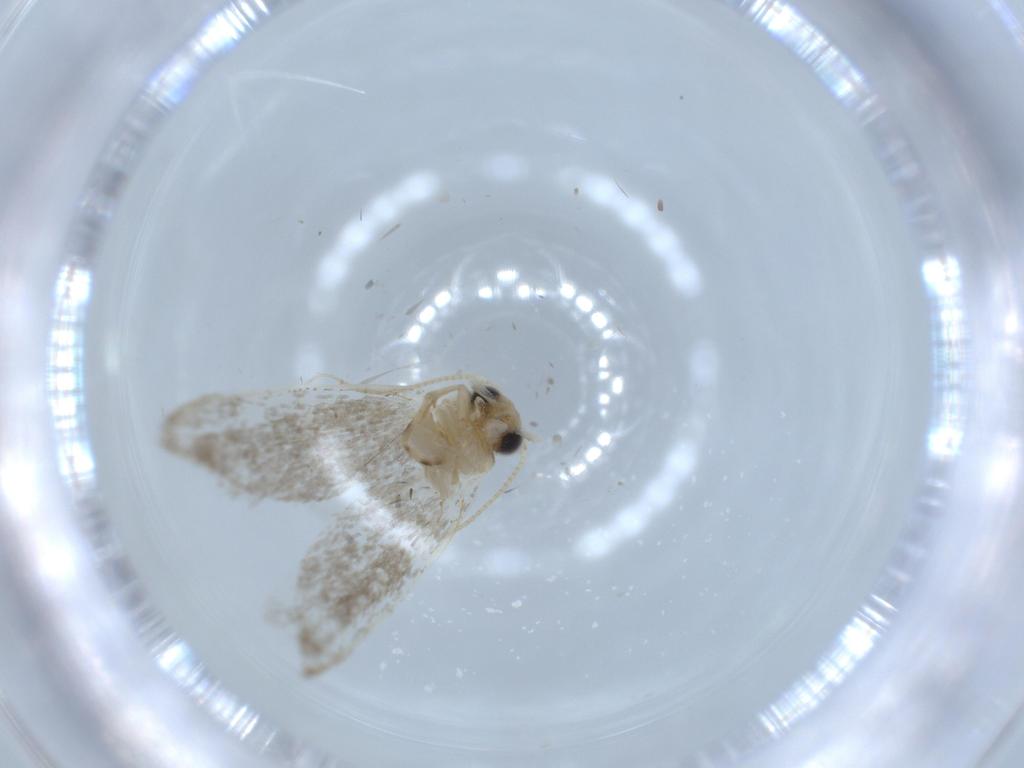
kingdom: Animalia
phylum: Arthropoda
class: Insecta
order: Lepidoptera
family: Tineidae
